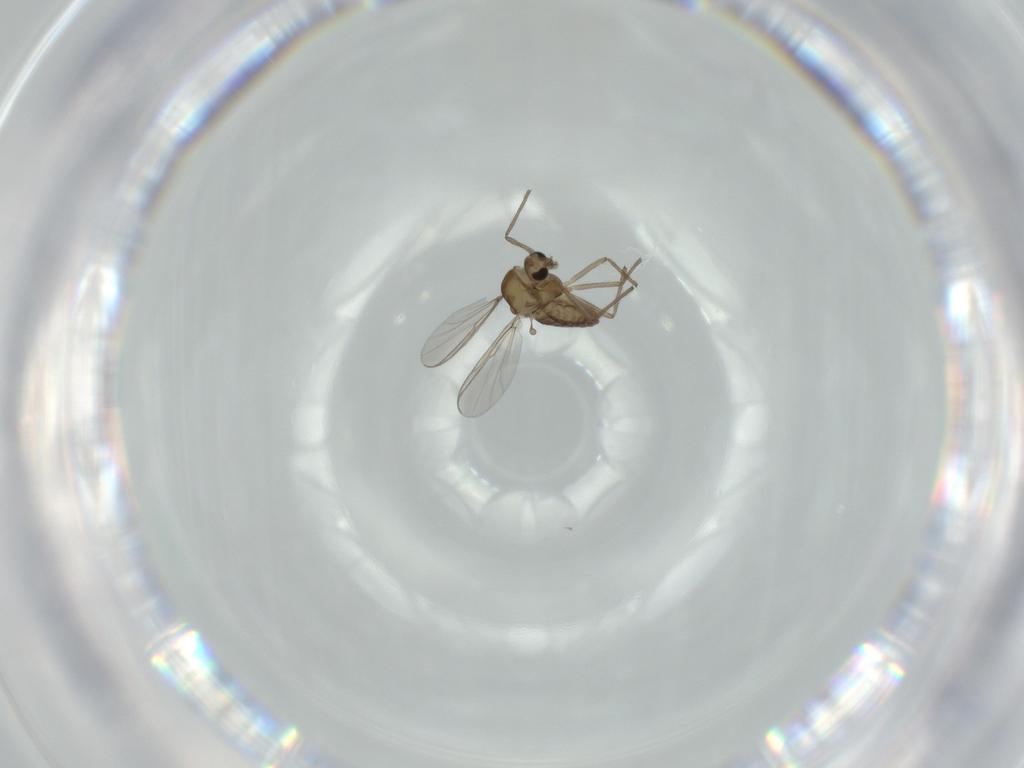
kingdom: Animalia
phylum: Arthropoda
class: Insecta
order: Diptera
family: Chironomidae
